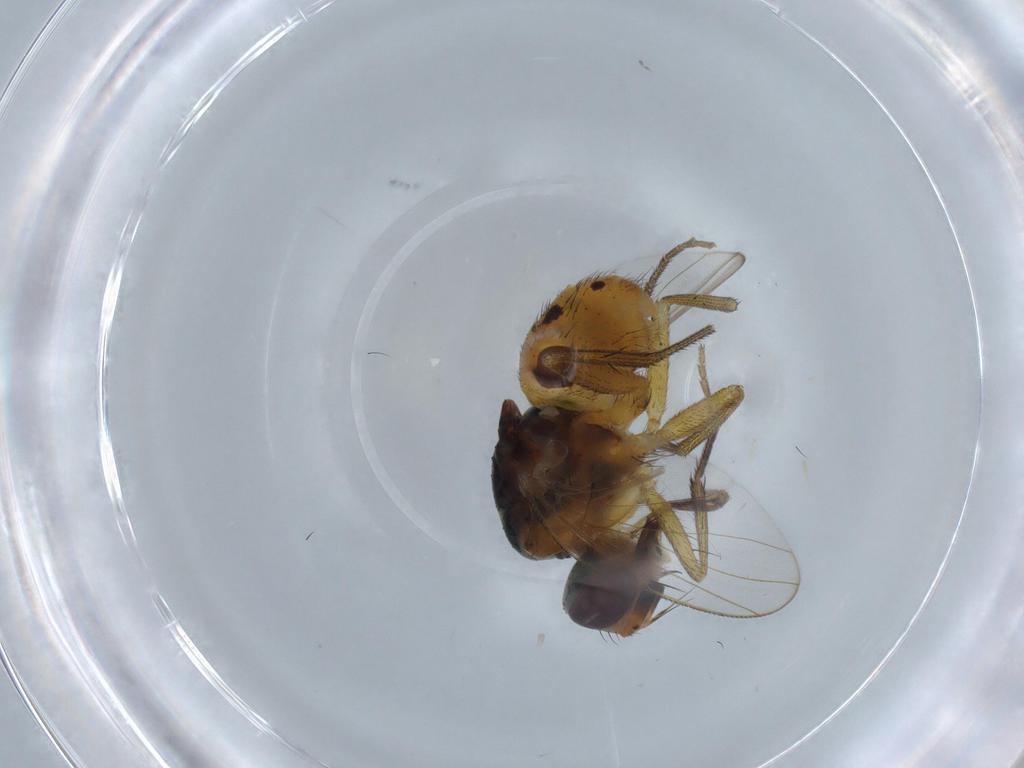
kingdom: Animalia
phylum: Arthropoda
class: Insecta
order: Diptera
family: Muscidae
